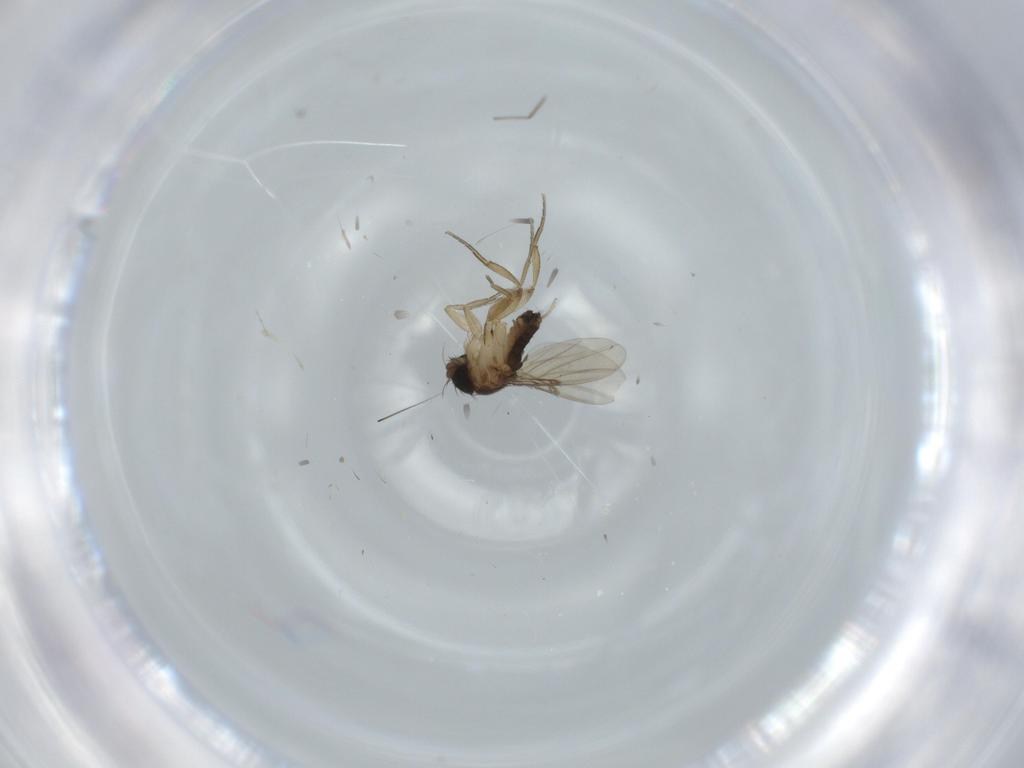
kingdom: Animalia
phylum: Arthropoda
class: Insecta
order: Diptera
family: Phoridae
